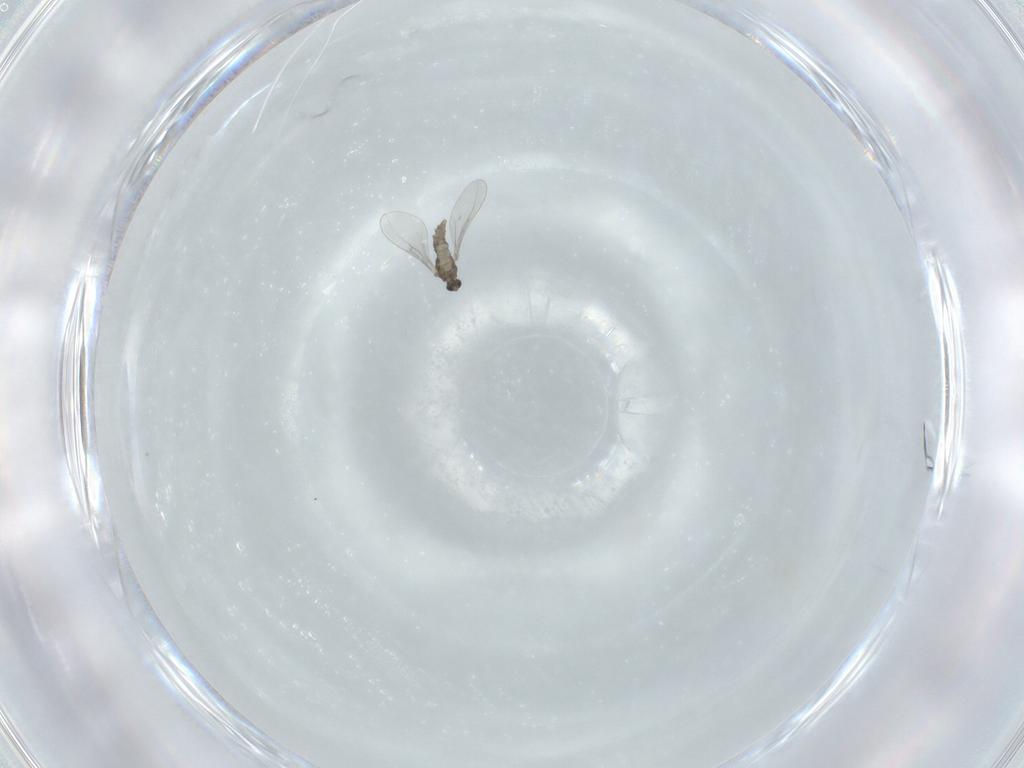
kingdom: Animalia
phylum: Arthropoda
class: Insecta
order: Diptera
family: Cecidomyiidae
